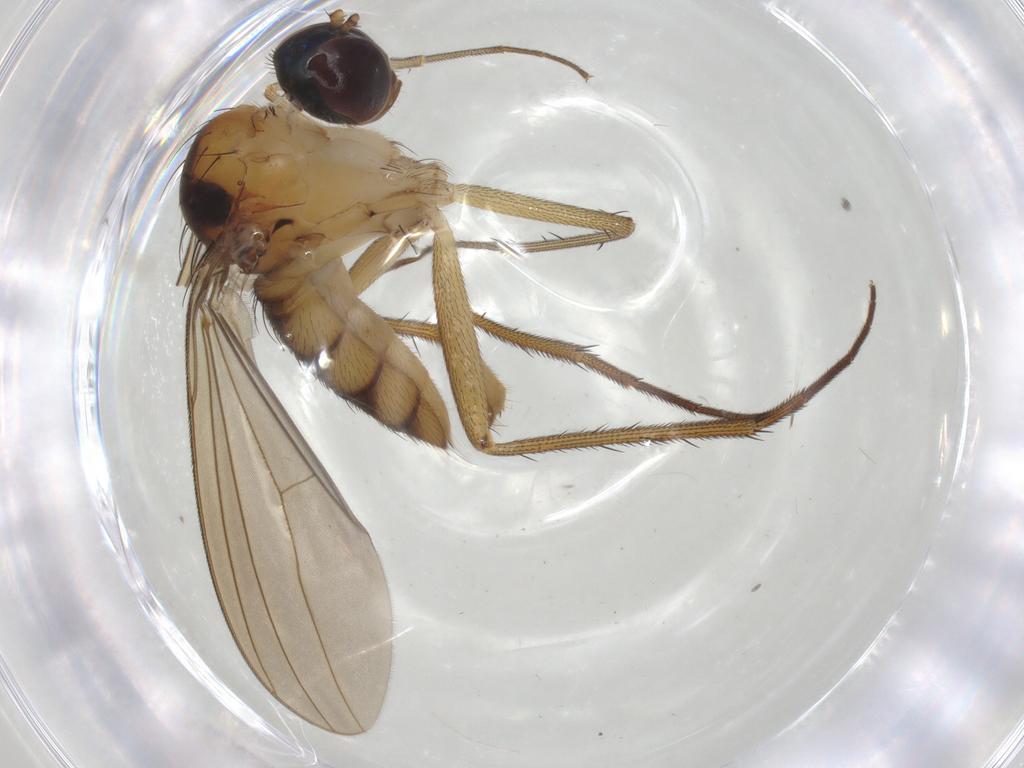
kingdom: Animalia
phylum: Arthropoda
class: Insecta
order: Diptera
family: Dolichopodidae
